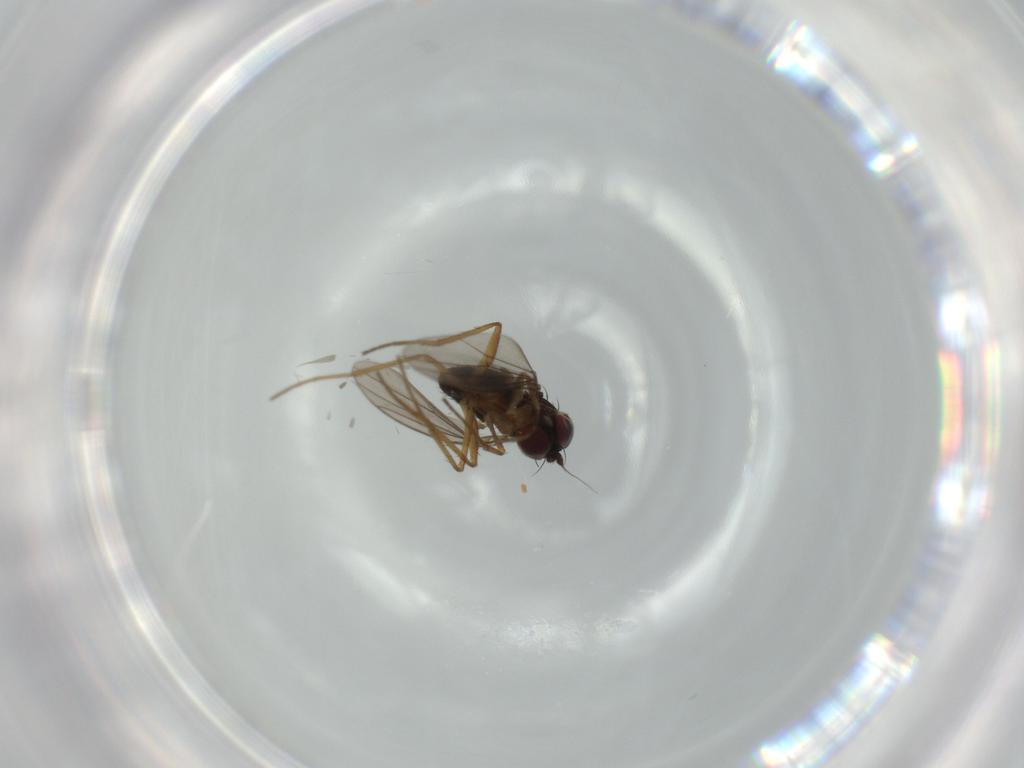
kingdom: Animalia
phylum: Arthropoda
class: Insecta
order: Diptera
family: Dolichopodidae
